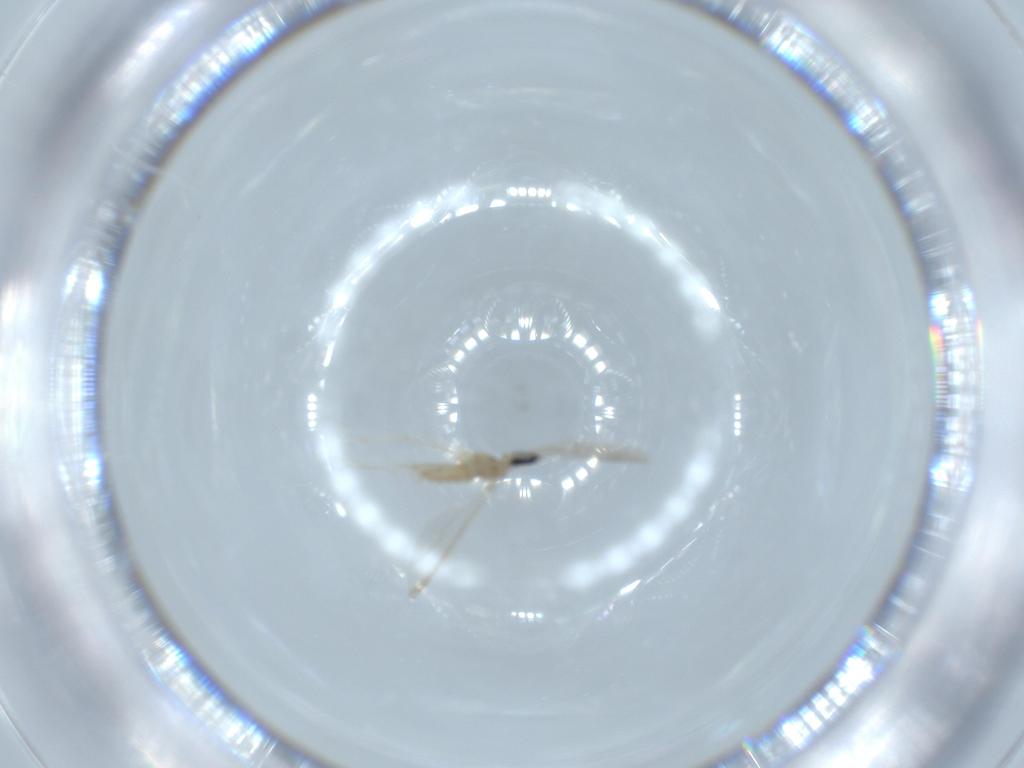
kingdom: Animalia
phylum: Arthropoda
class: Insecta
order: Diptera
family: Cecidomyiidae
